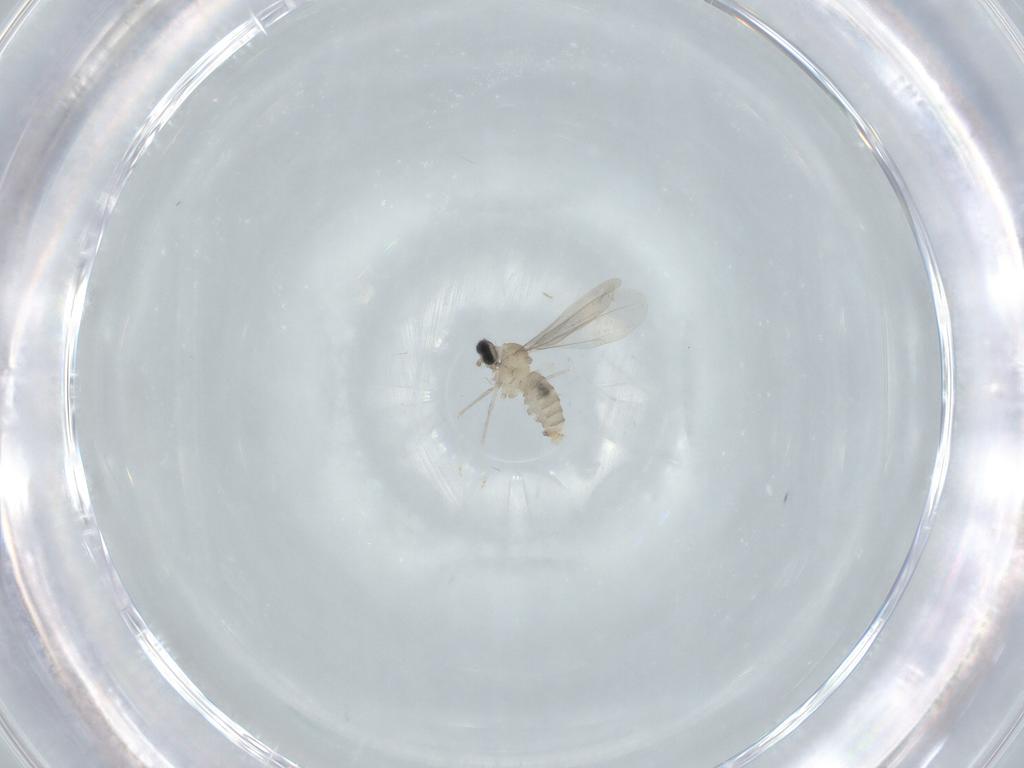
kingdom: Animalia
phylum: Arthropoda
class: Insecta
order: Diptera
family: Cecidomyiidae
